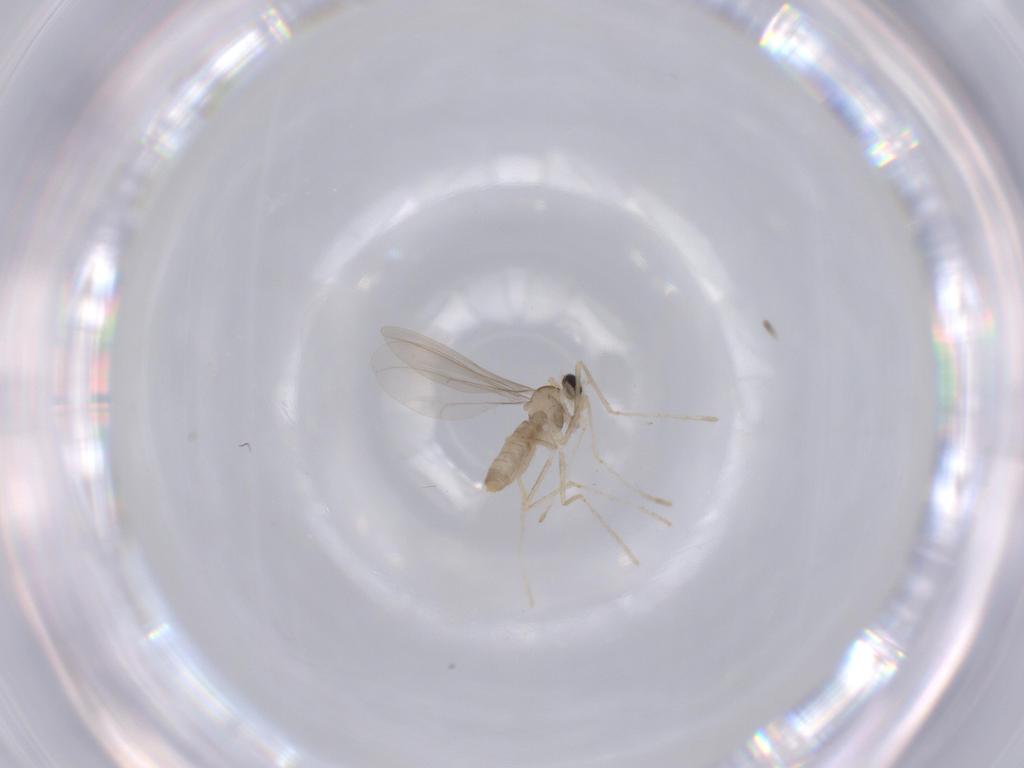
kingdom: Animalia
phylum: Arthropoda
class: Insecta
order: Diptera
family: Cecidomyiidae
